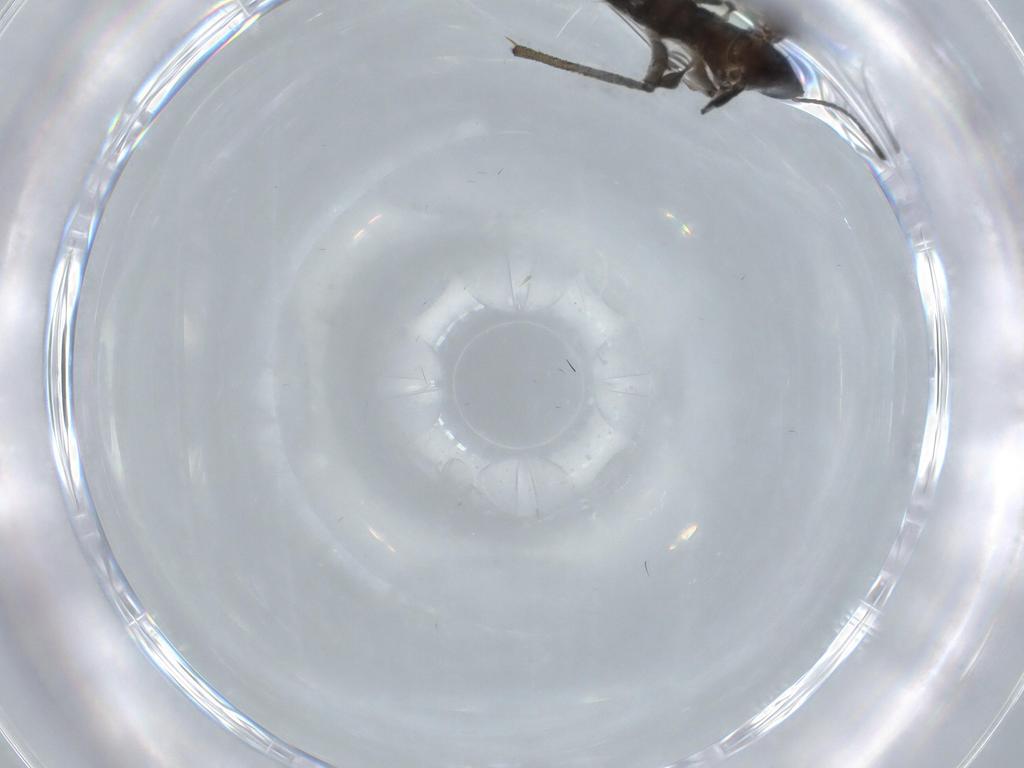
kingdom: Animalia
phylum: Arthropoda
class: Insecta
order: Diptera
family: Sciaridae
